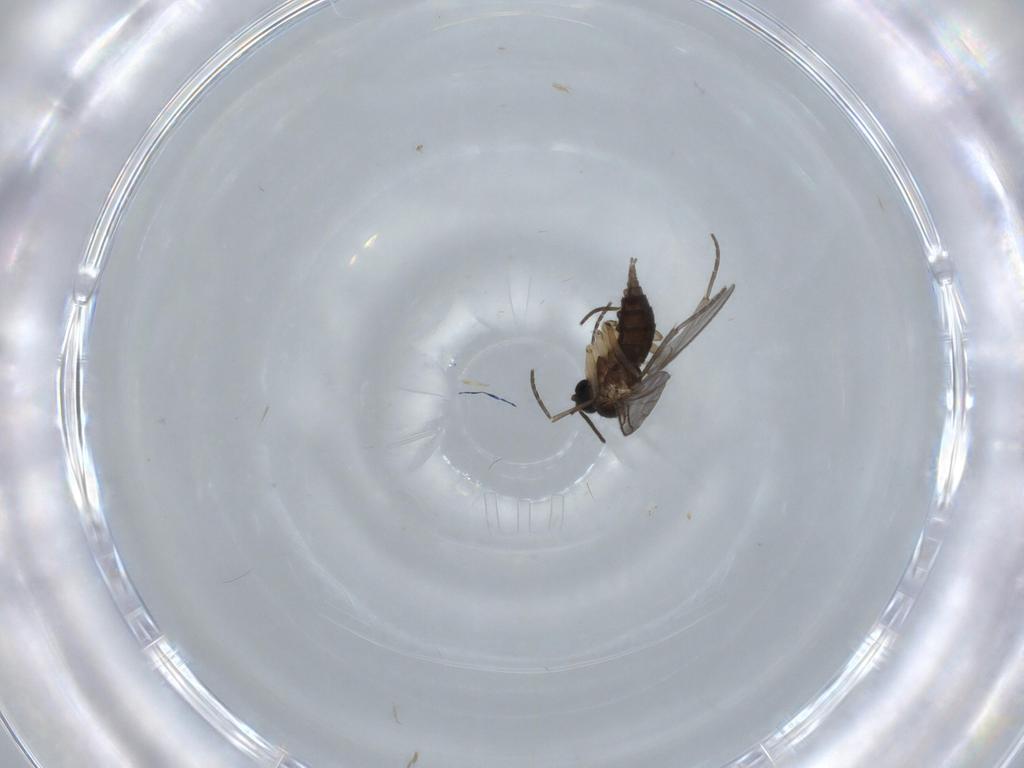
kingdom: Animalia
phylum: Arthropoda
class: Insecta
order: Diptera
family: Sciaridae
